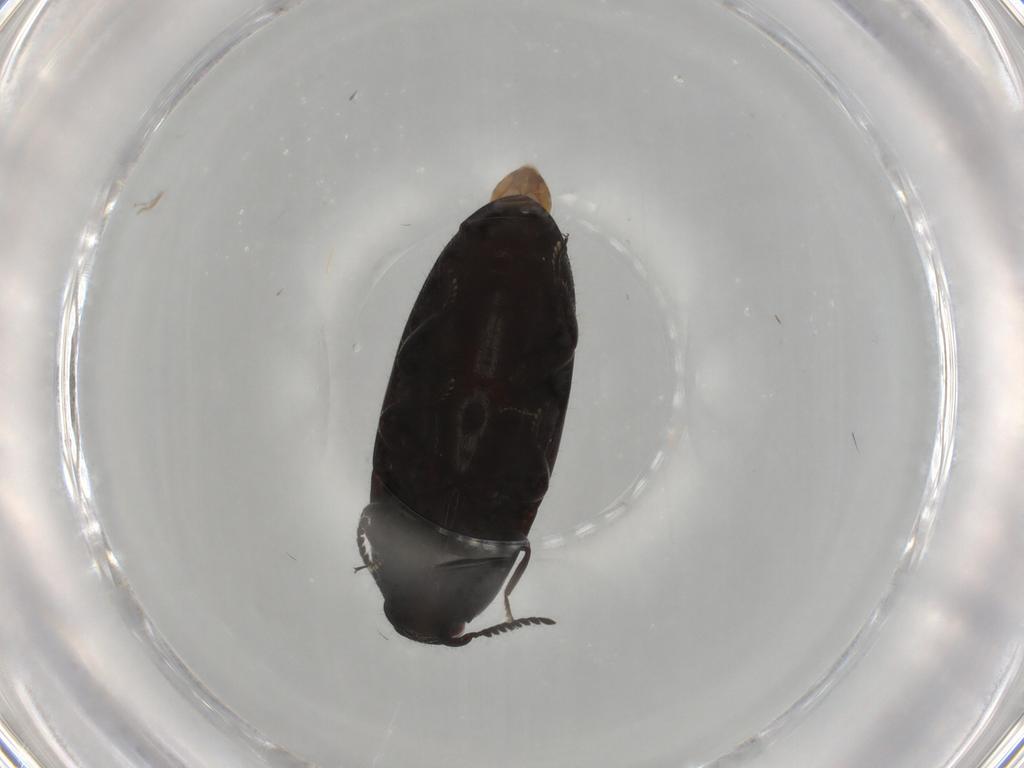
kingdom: Animalia
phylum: Arthropoda
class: Insecta
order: Coleoptera
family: Elateridae
